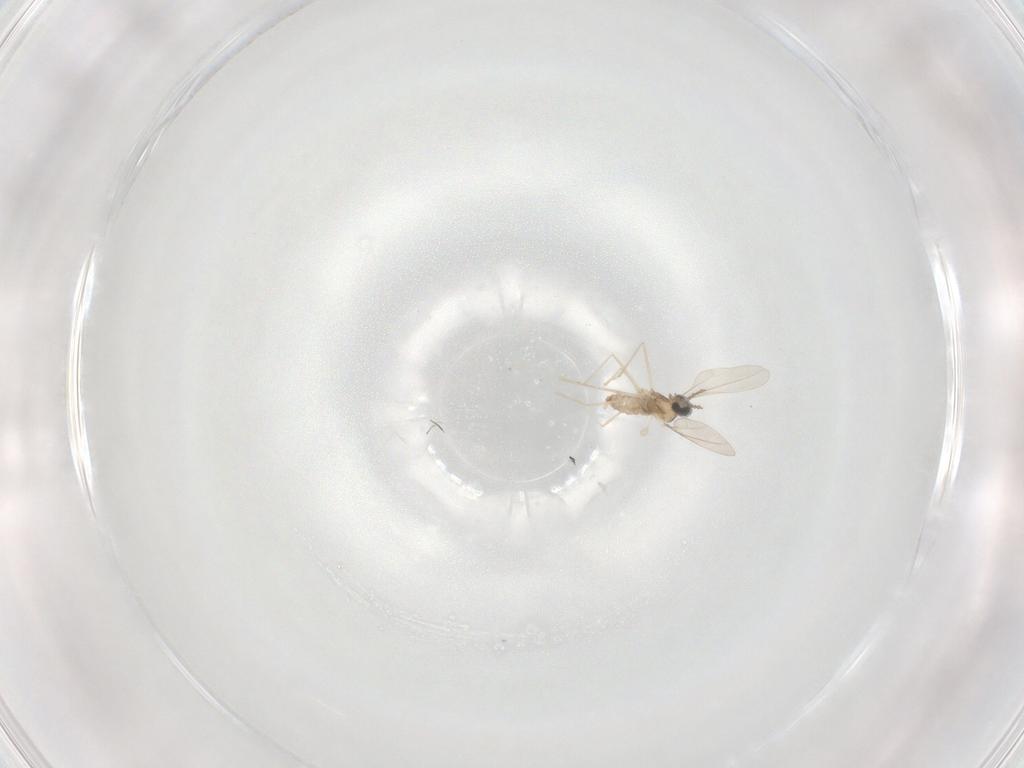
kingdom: Animalia
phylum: Arthropoda
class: Insecta
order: Diptera
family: Cecidomyiidae
